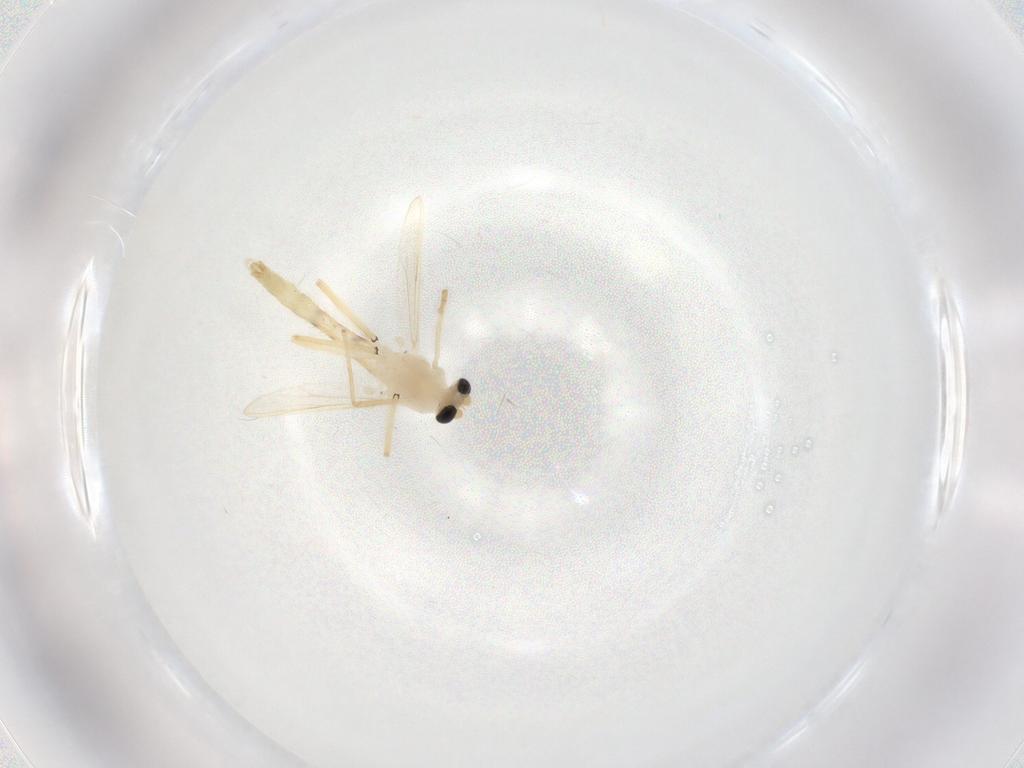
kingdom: Animalia
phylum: Arthropoda
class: Insecta
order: Diptera
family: Chironomidae
